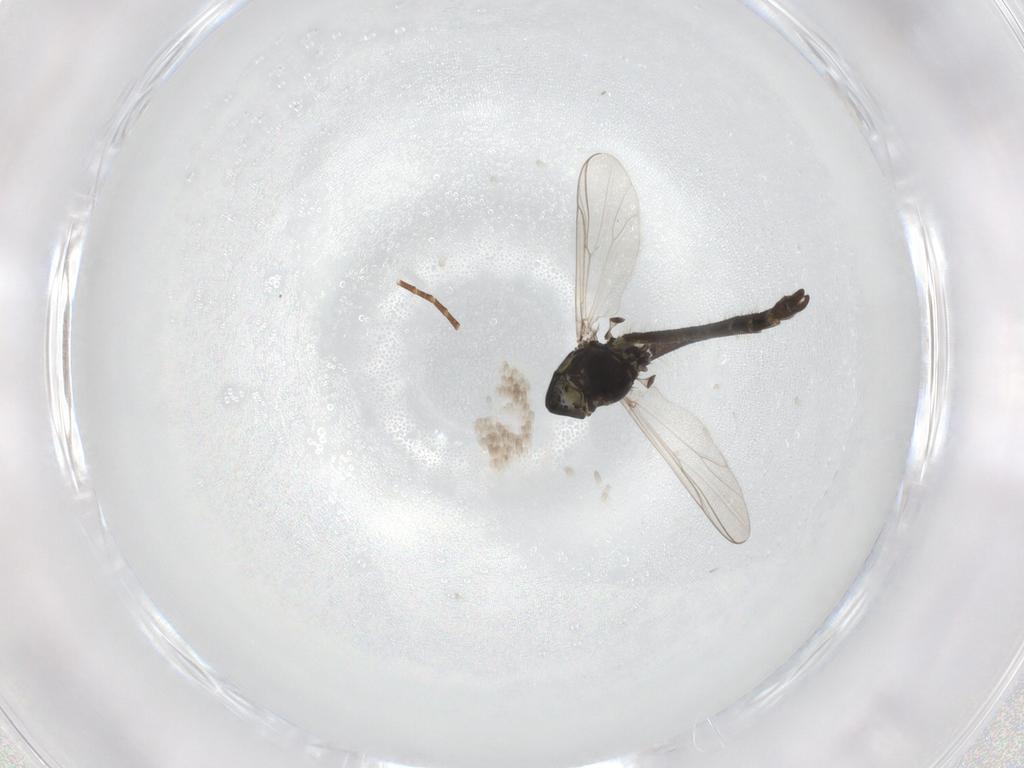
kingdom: Animalia
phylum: Arthropoda
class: Insecta
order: Diptera
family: Chironomidae
